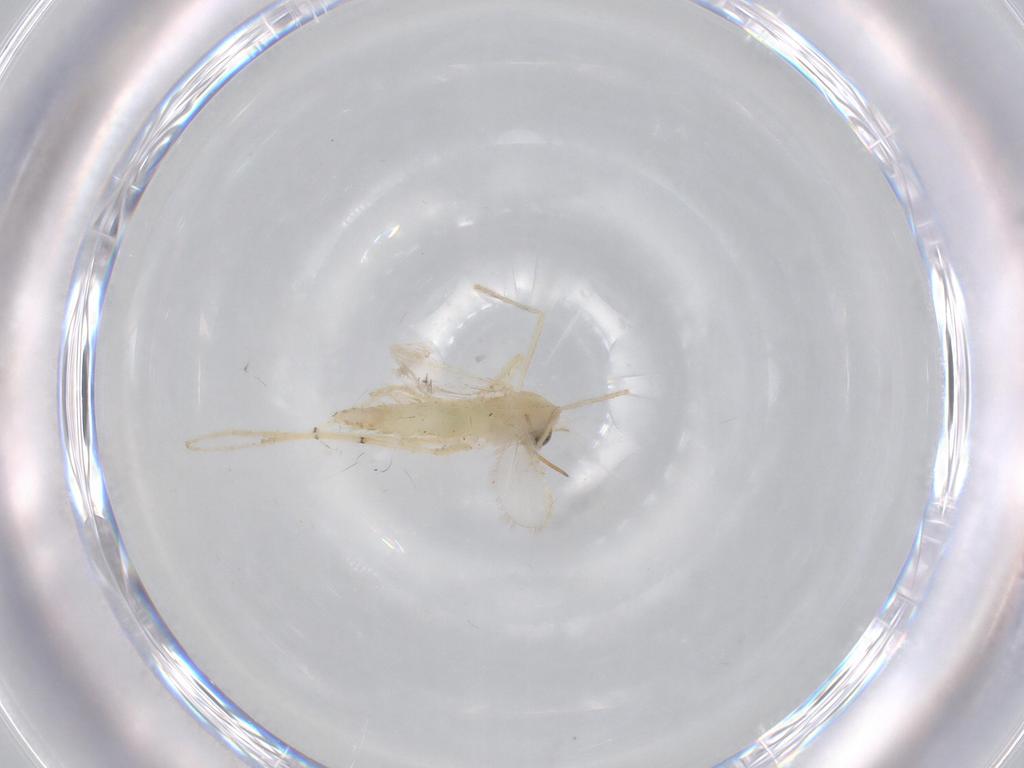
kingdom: Animalia
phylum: Arthropoda
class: Insecta
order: Diptera
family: Chironomidae
